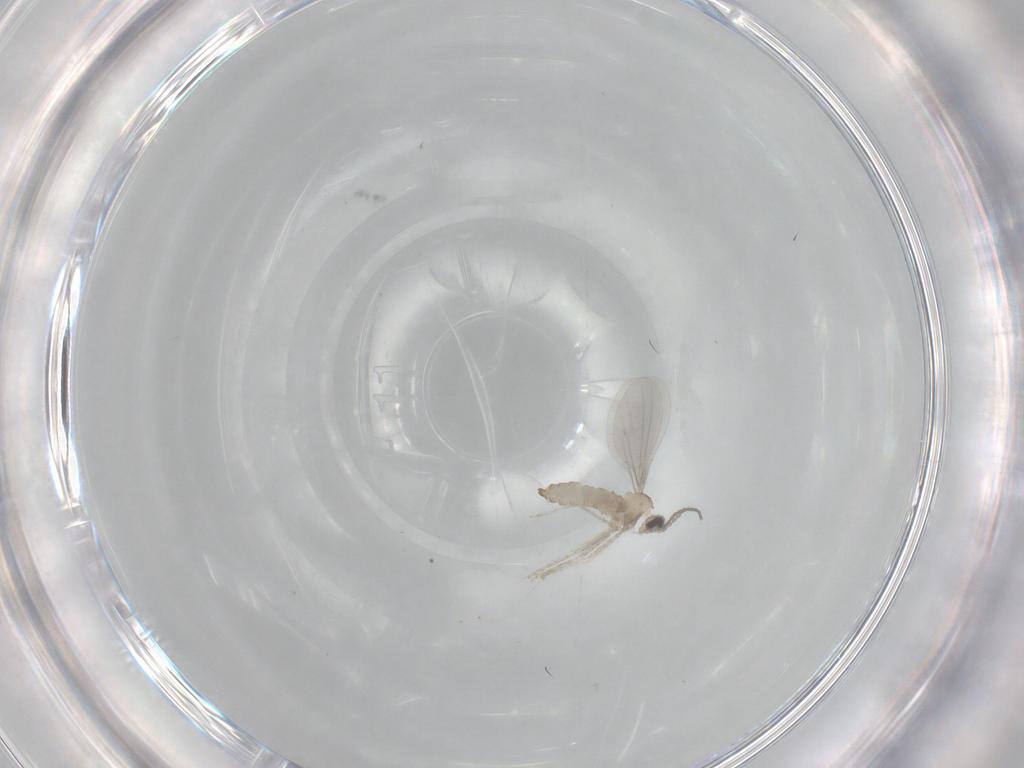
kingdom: Animalia
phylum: Arthropoda
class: Insecta
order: Diptera
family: Cecidomyiidae
